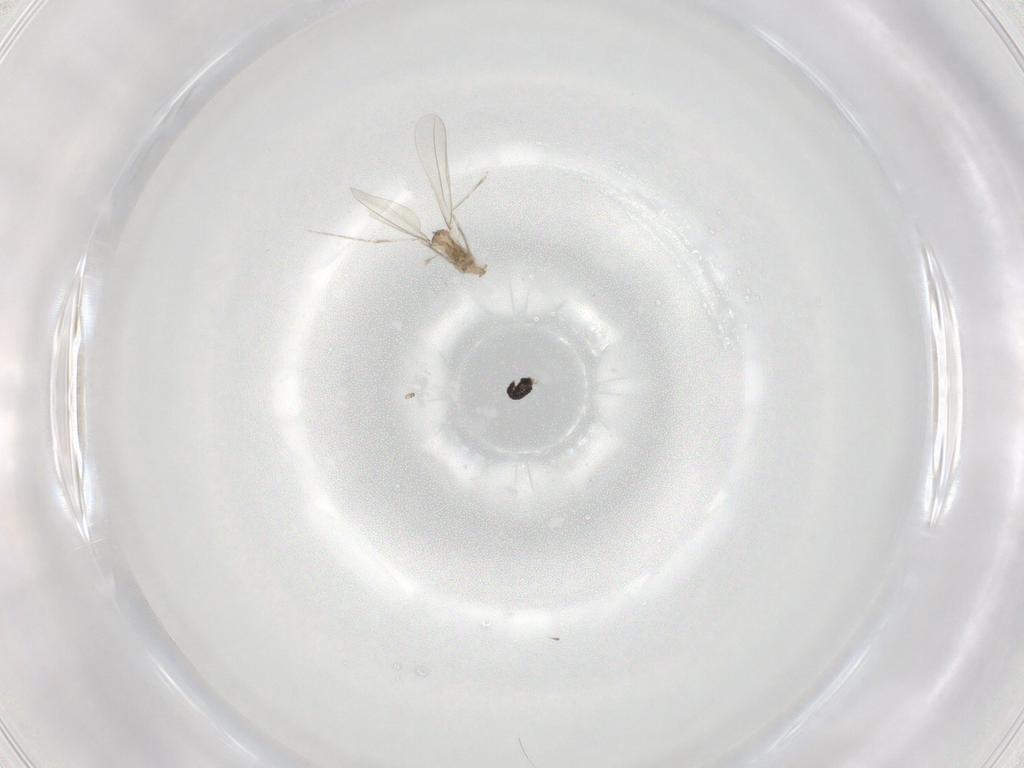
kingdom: Animalia
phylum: Arthropoda
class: Insecta
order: Diptera
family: Cecidomyiidae
